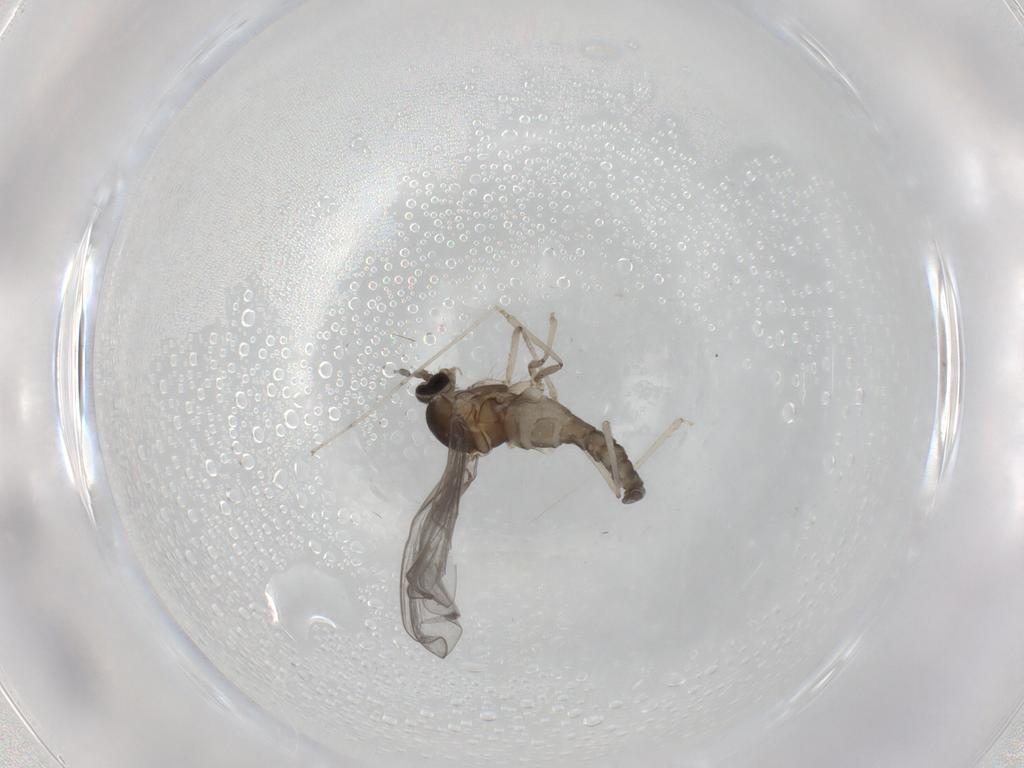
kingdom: Animalia
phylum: Arthropoda
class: Insecta
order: Diptera
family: Cecidomyiidae
